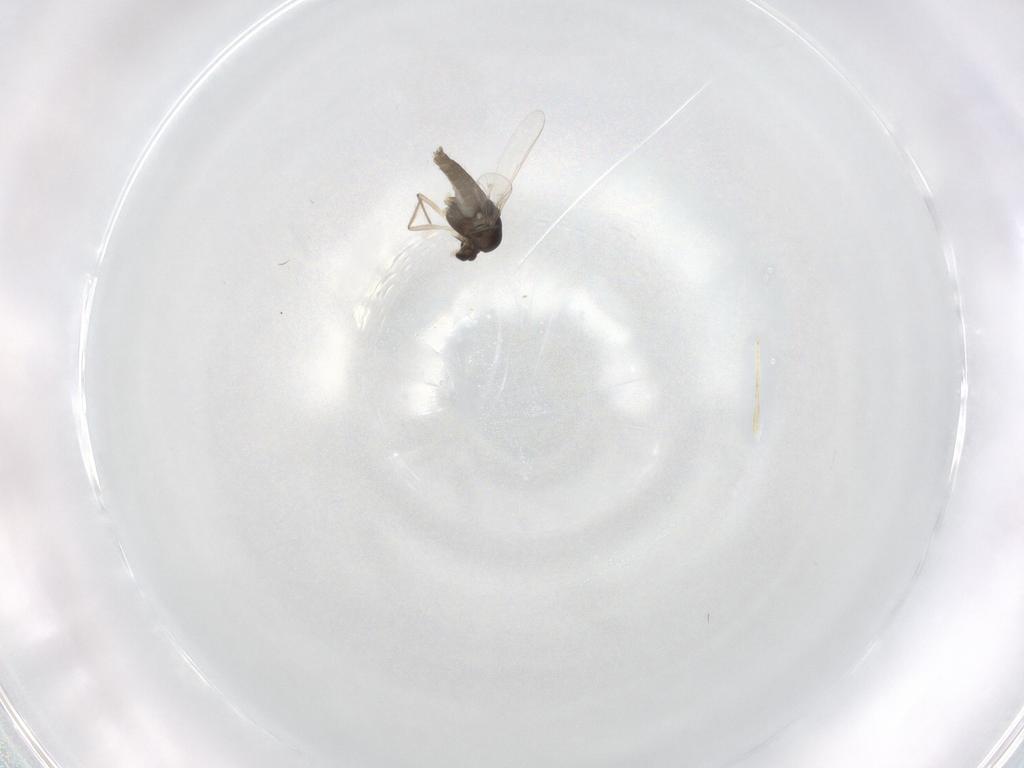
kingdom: Animalia
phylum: Arthropoda
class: Insecta
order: Diptera
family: Chironomidae
